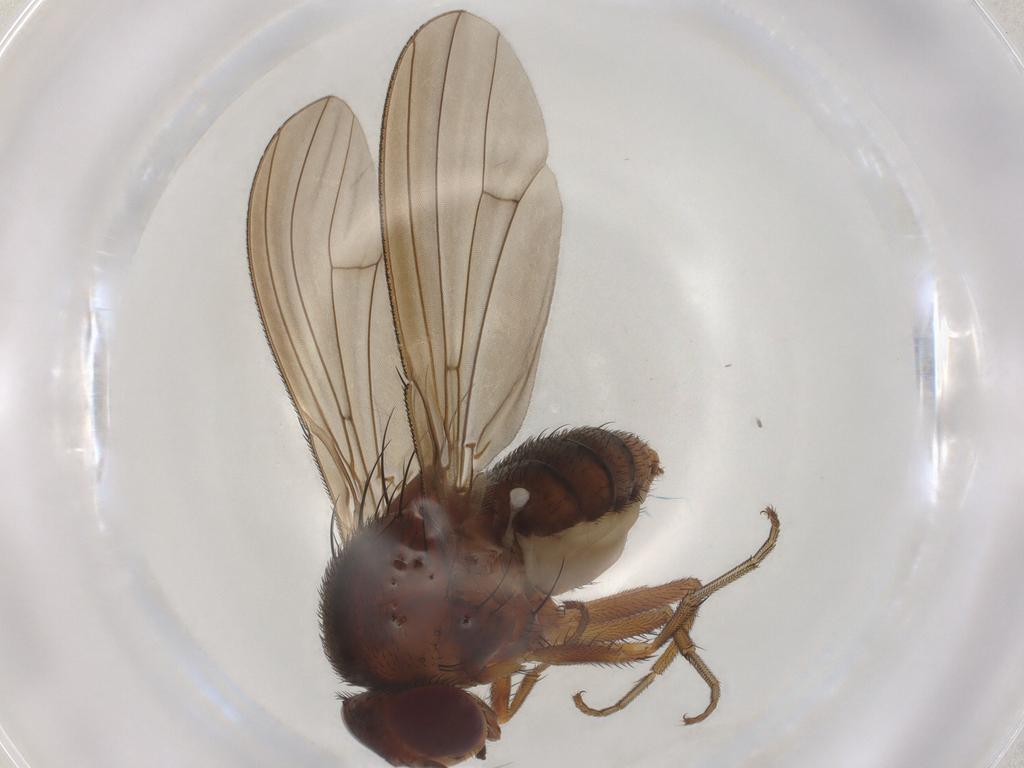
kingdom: Animalia
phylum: Arthropoda
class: Insecta
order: Diptera
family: Curtonotidae
